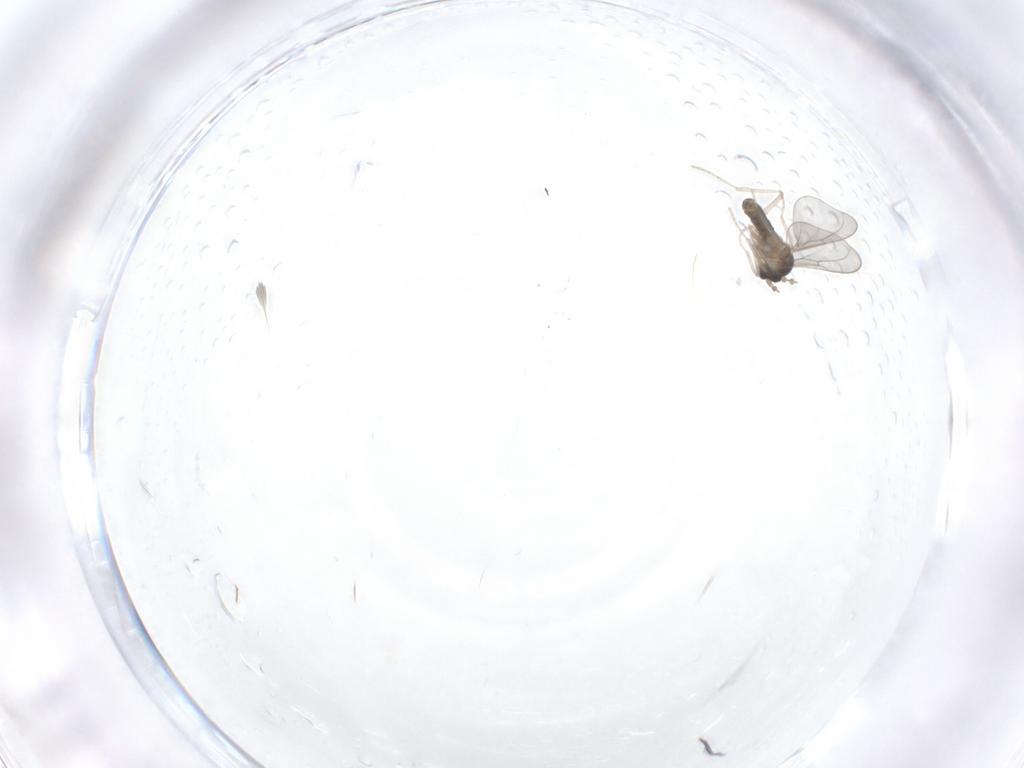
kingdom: Animalia
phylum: Arthropoda
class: Insecta
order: Diptera
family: Cecidomyiidae
